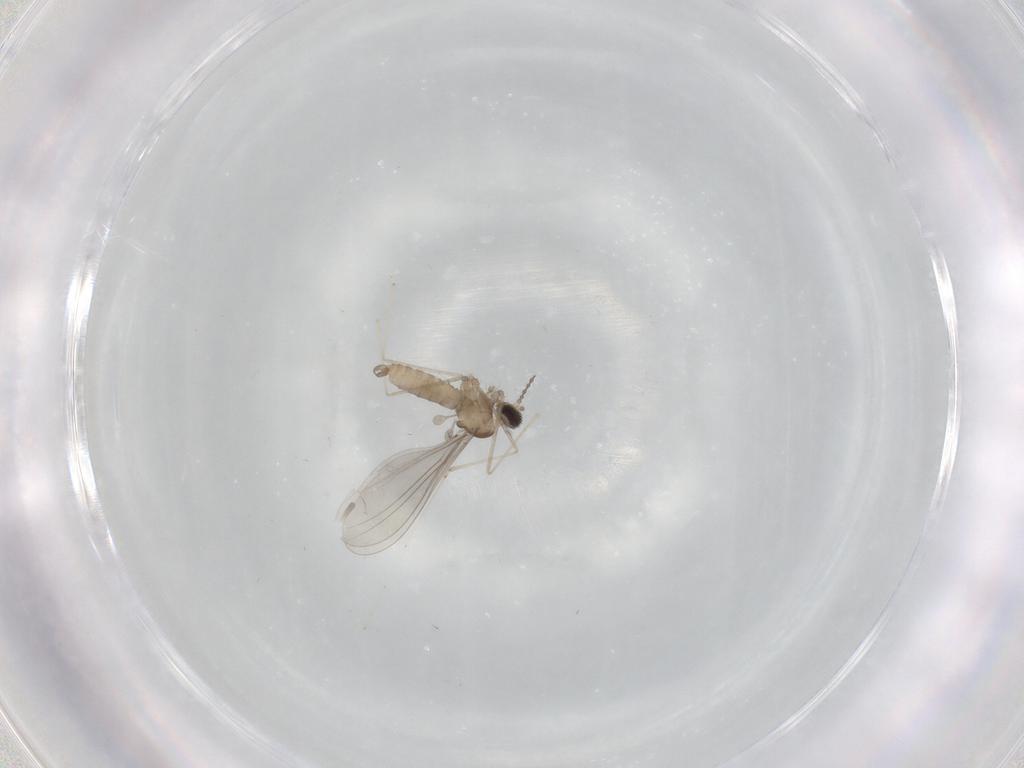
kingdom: Animalia
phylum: Arthropoda
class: Insecta
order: Diptera
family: Cecidomyiidae
